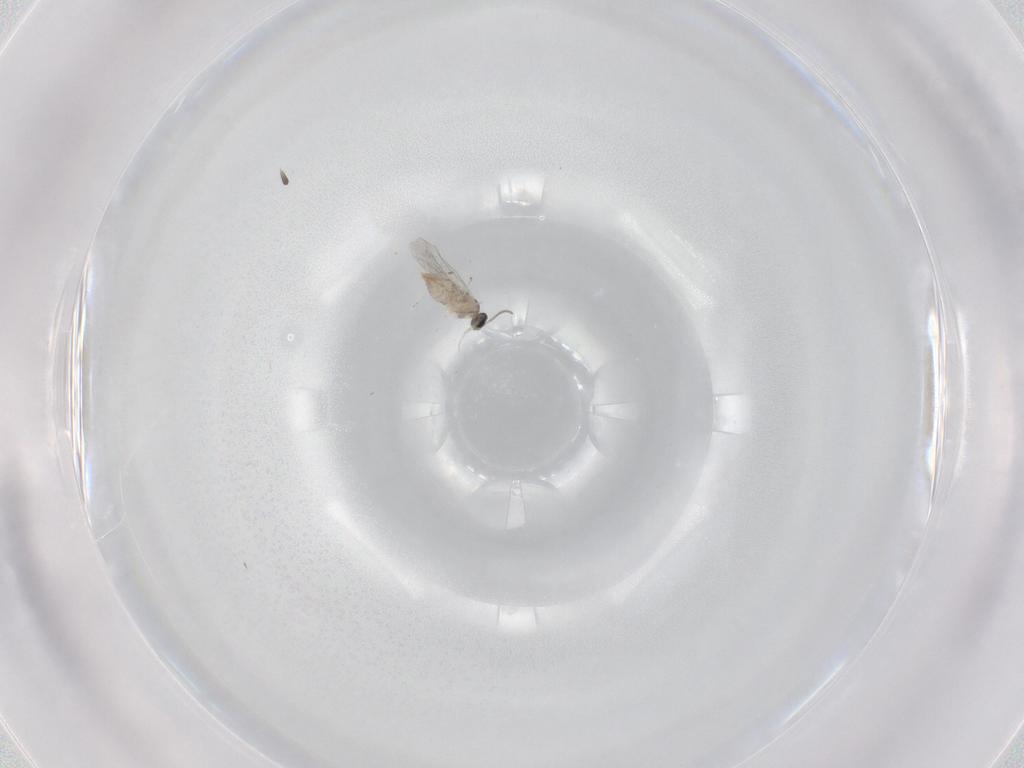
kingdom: Animalia
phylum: Arthropoda
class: Insecta
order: Diptera
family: Cecidomyiidae
